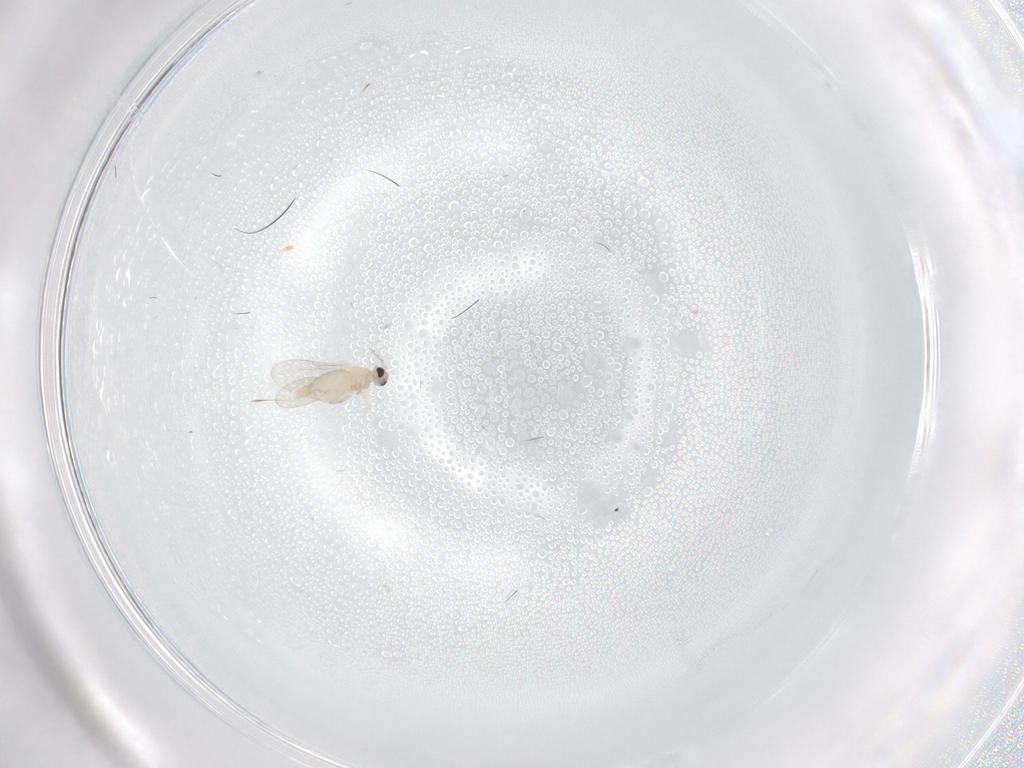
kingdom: Animalia
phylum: Arthropoda
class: Insecta
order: Diptera
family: Cecidomyiidae
